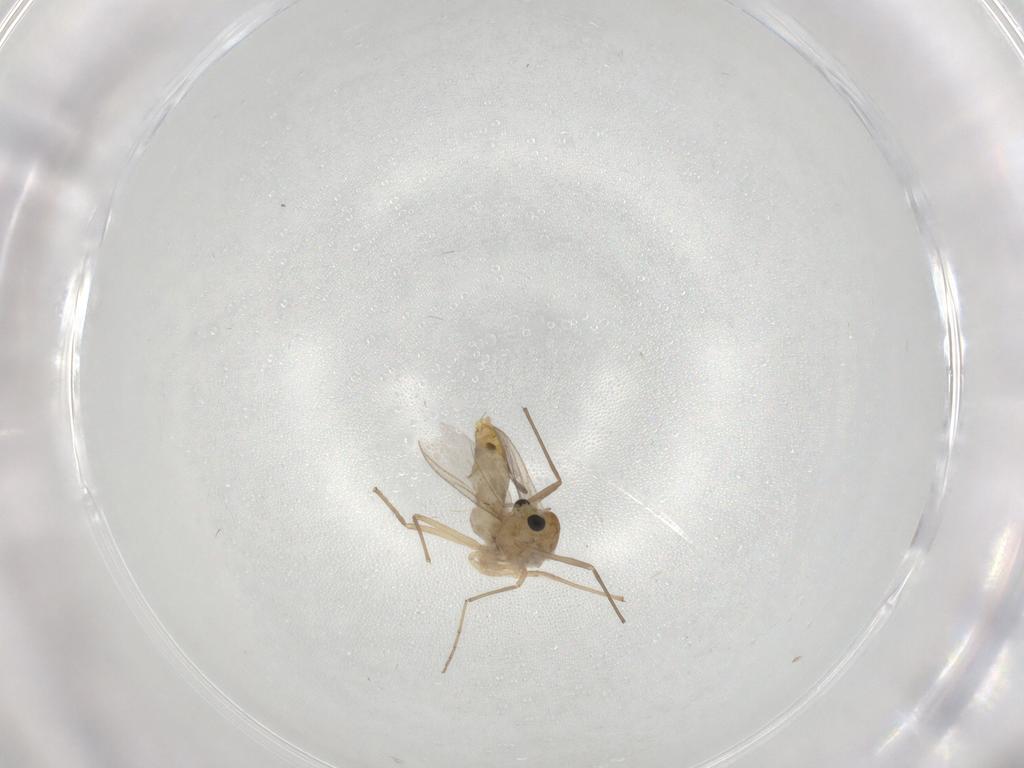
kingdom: Animalia
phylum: Arthropoda
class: Insecta
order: Diptera
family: Chironomidae
